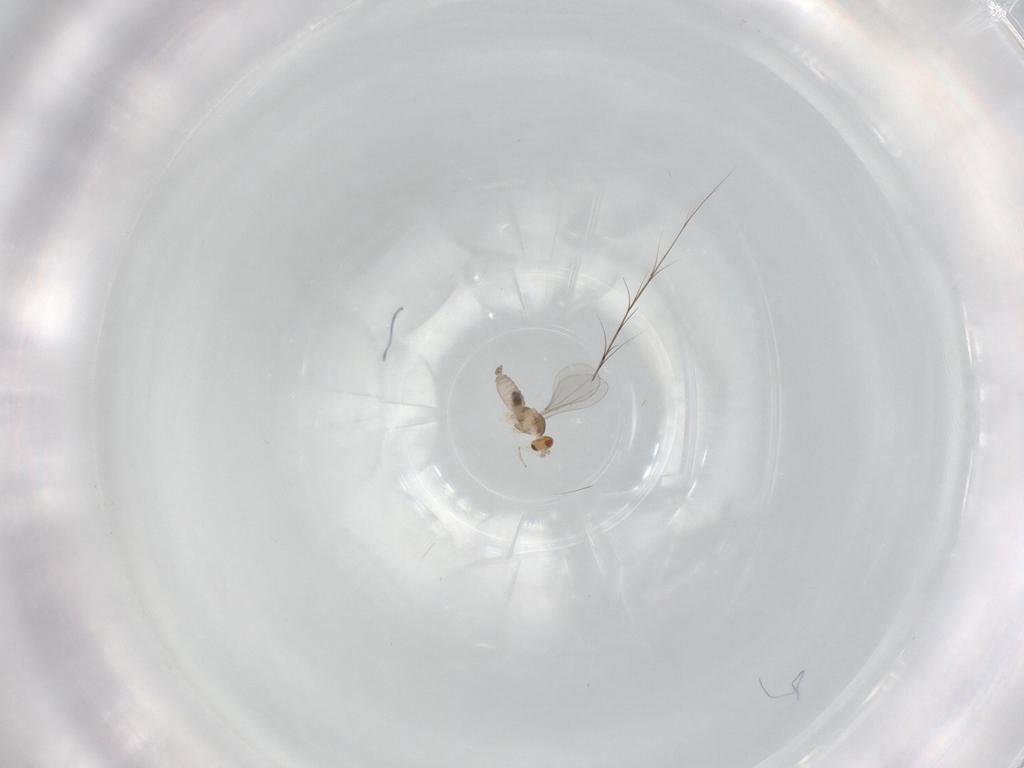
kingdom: Animalia
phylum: Arthropoda
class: Insecta
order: Diptera
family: Cecidomyiidae
